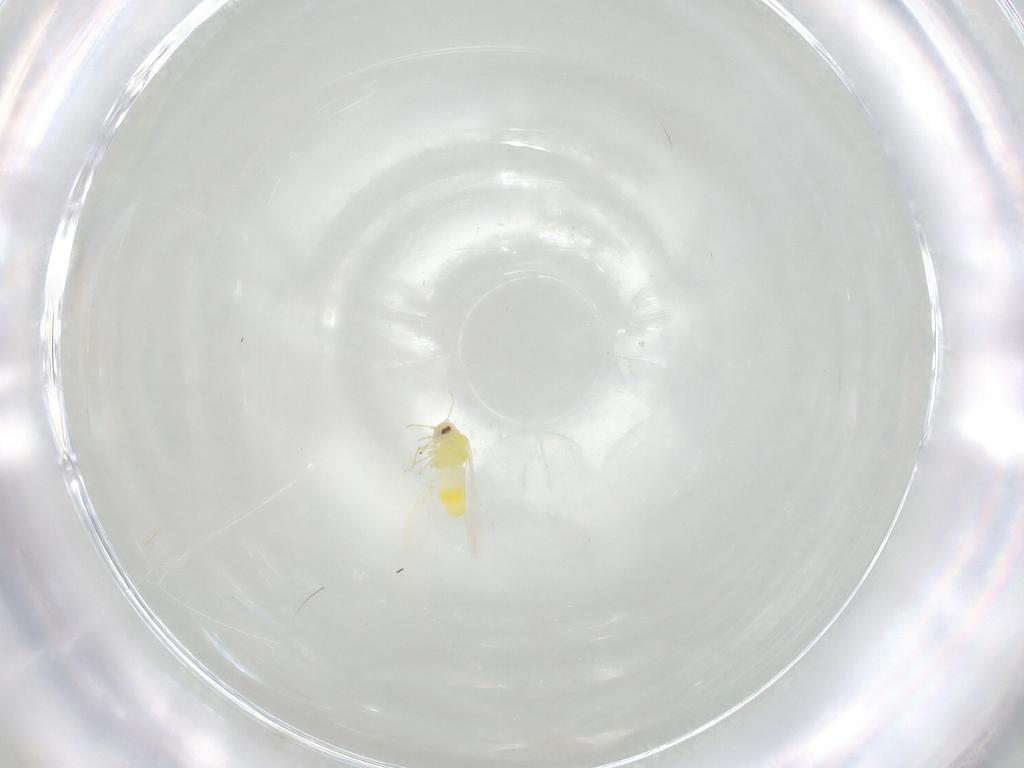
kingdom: Animalia
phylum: Arthropoda
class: Insecta
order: Hemiptera
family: Aleyrodidae
